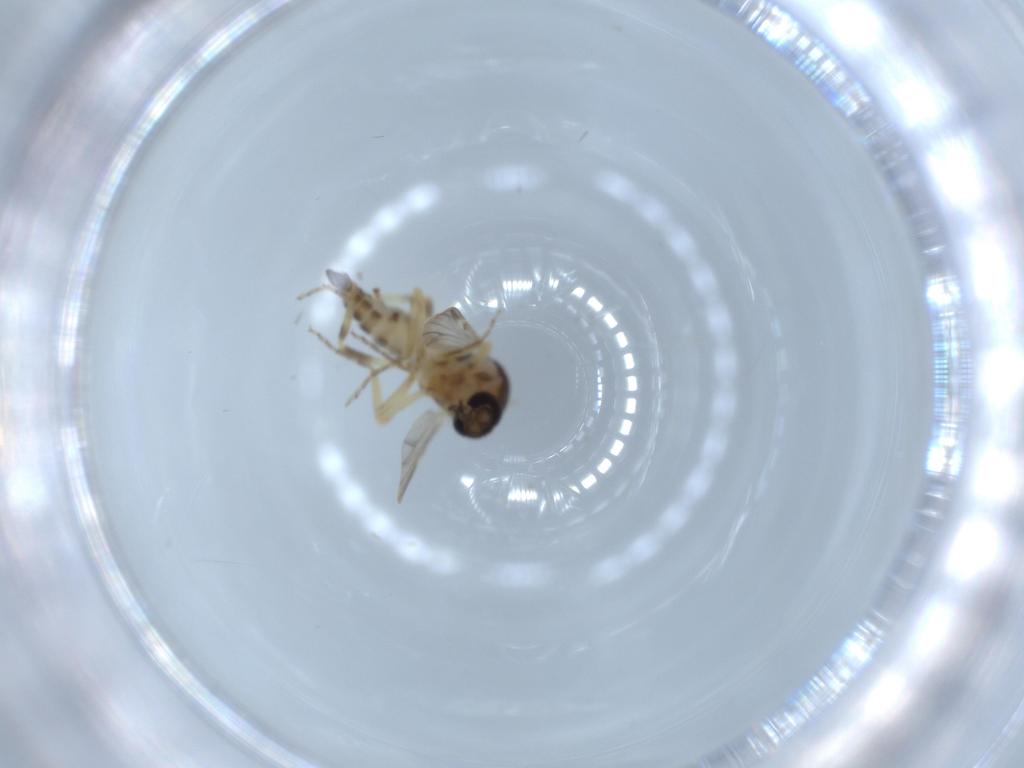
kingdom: Animalia
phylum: Arthropoda
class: Insecta
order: Diptera
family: Ceratopogonidae
